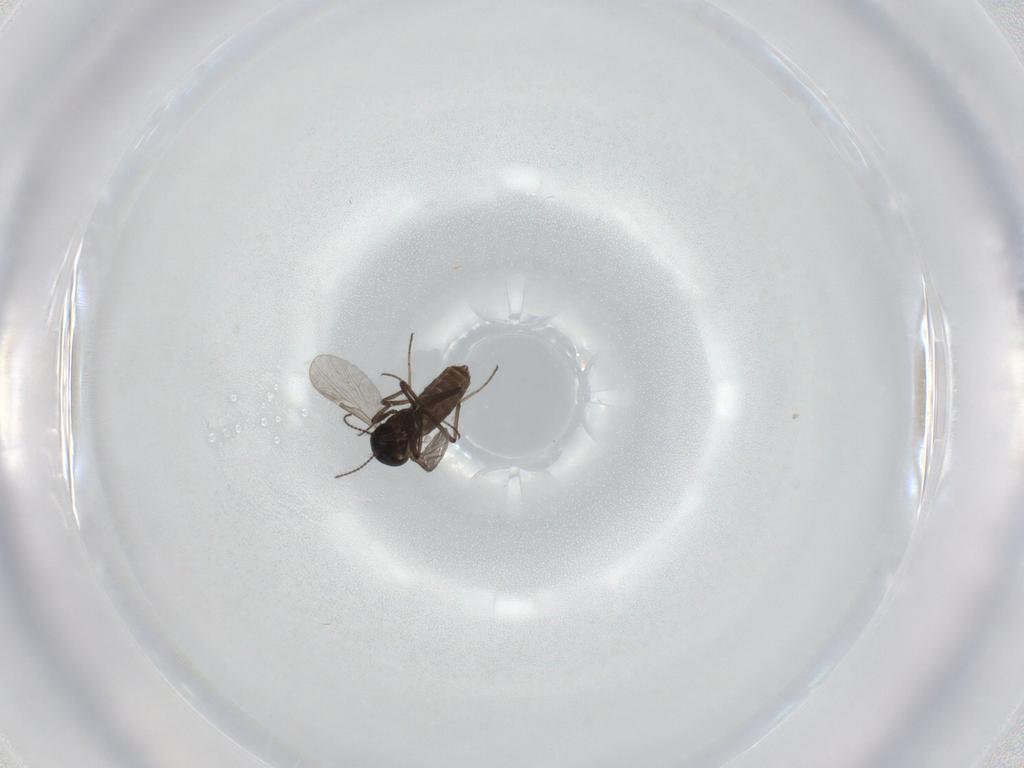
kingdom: Animalia
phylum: Arthropoda
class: Insecta
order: Diptera
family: Ceratopogonidae
